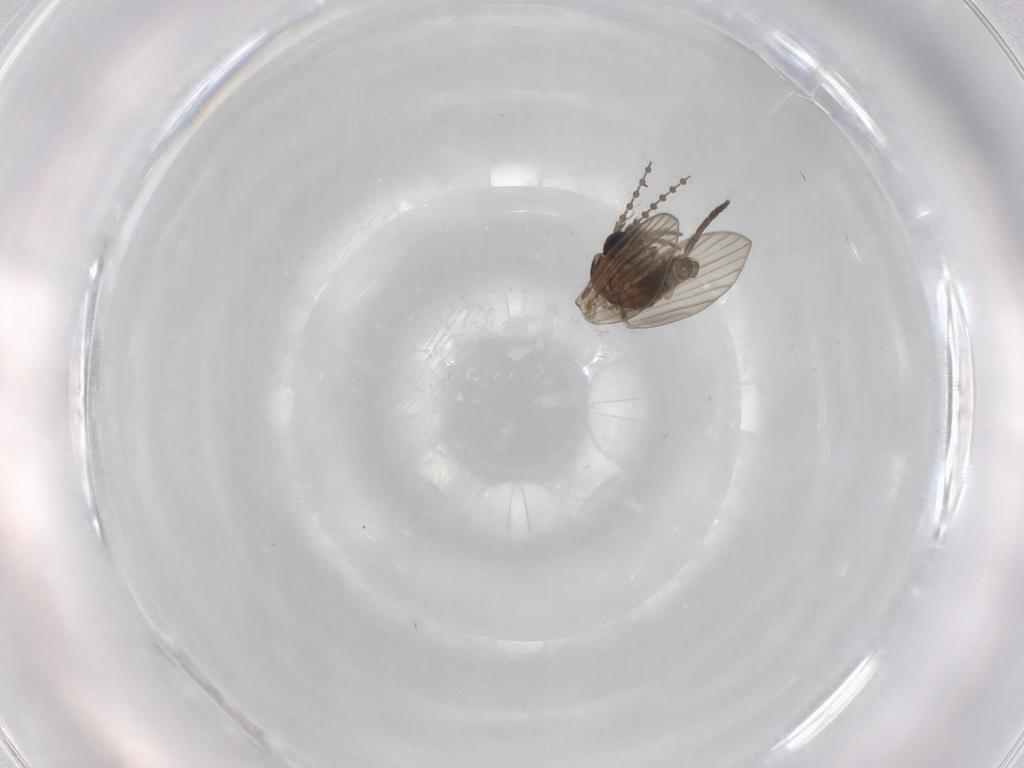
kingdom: Animalia
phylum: Arthropoda
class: Insecta
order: Diptera
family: Psychodidae
